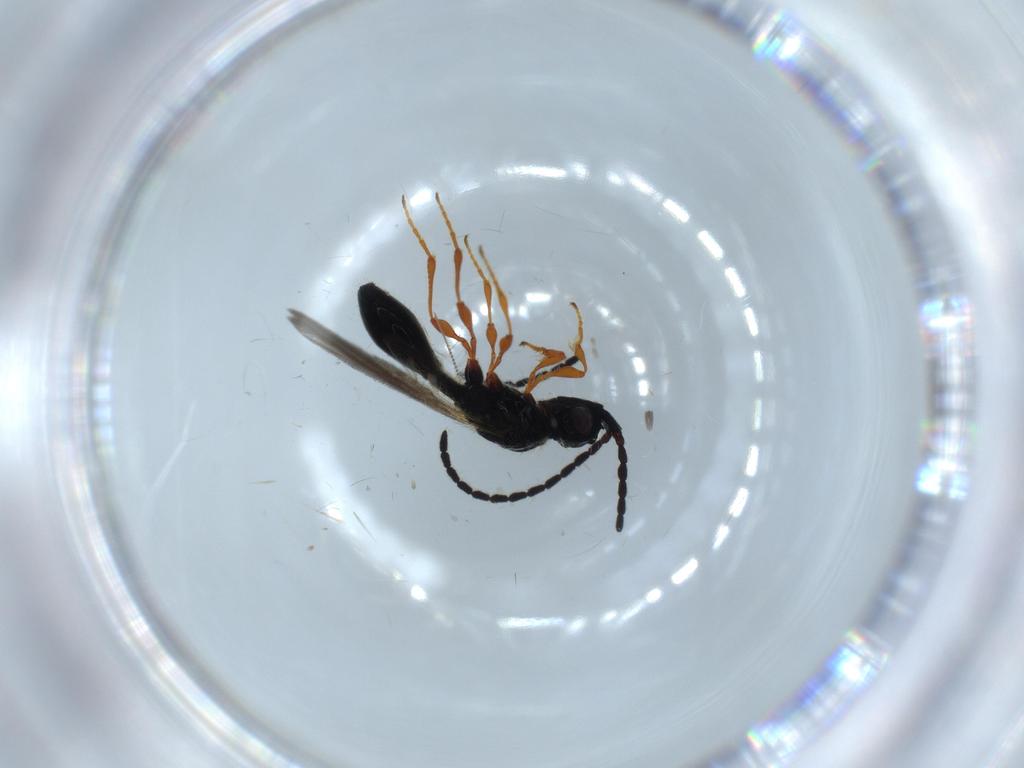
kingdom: Animalia
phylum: Arthropoda
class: Insecta
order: Hymenoptera
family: Diapriidae
